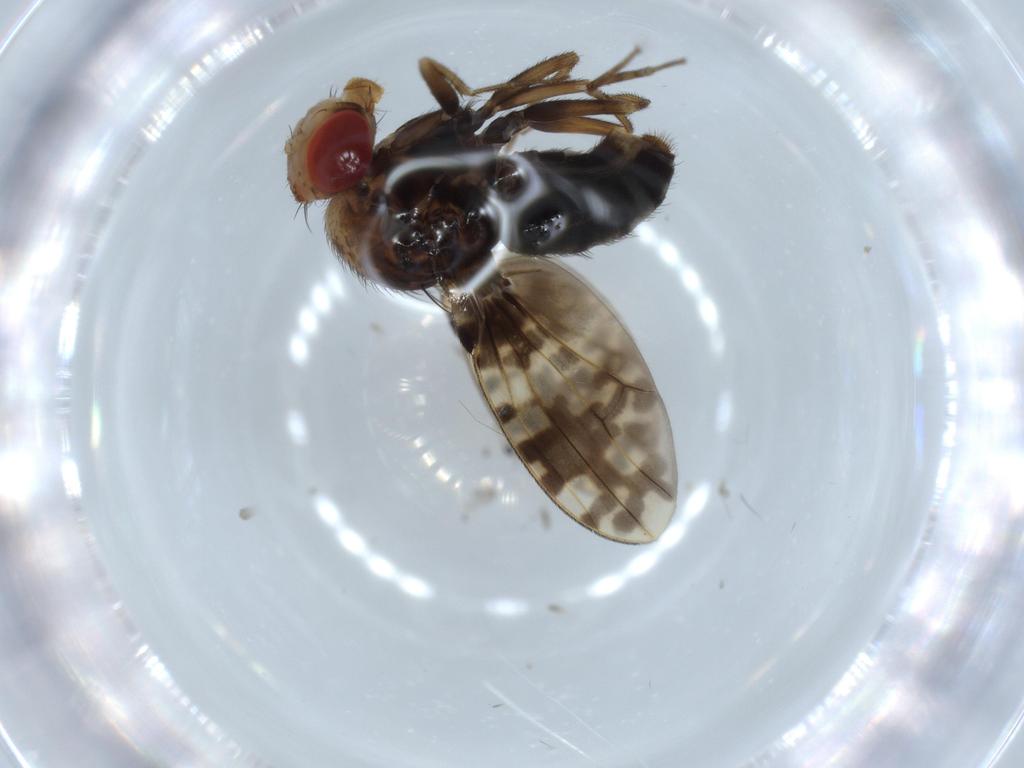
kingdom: Animalia
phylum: Arthropoda
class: Insecta
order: Diptera
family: Drosophilidae
